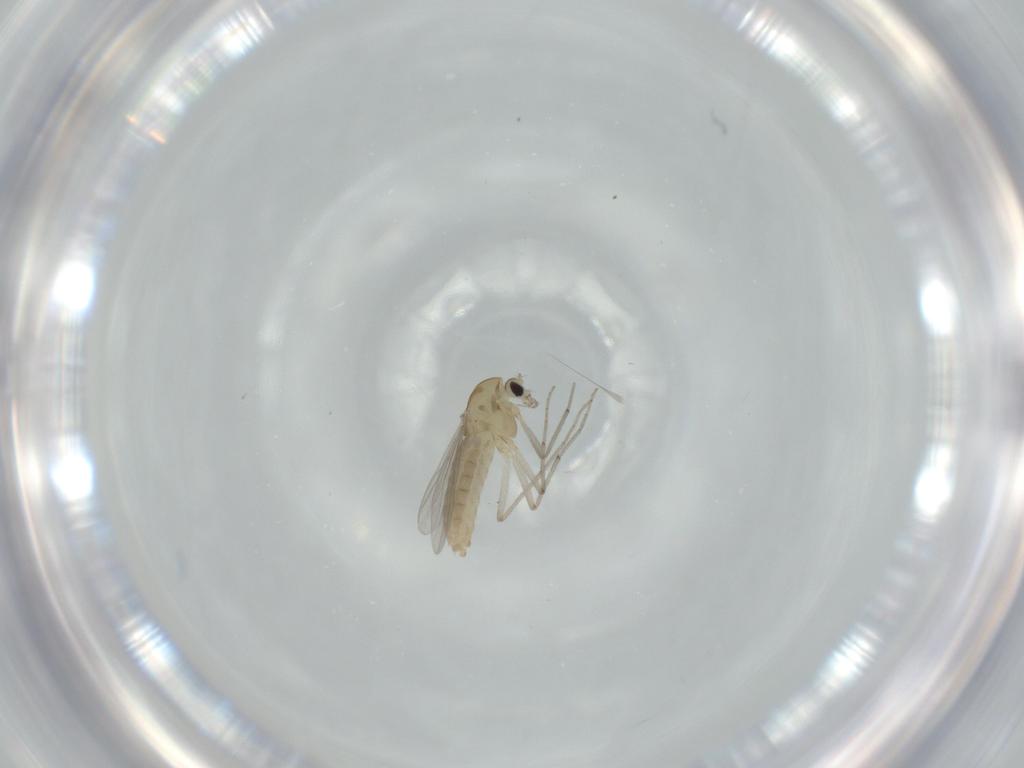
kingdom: Animalia
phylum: Arthropoda
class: Insecta
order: Diptera
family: Chironomidae
